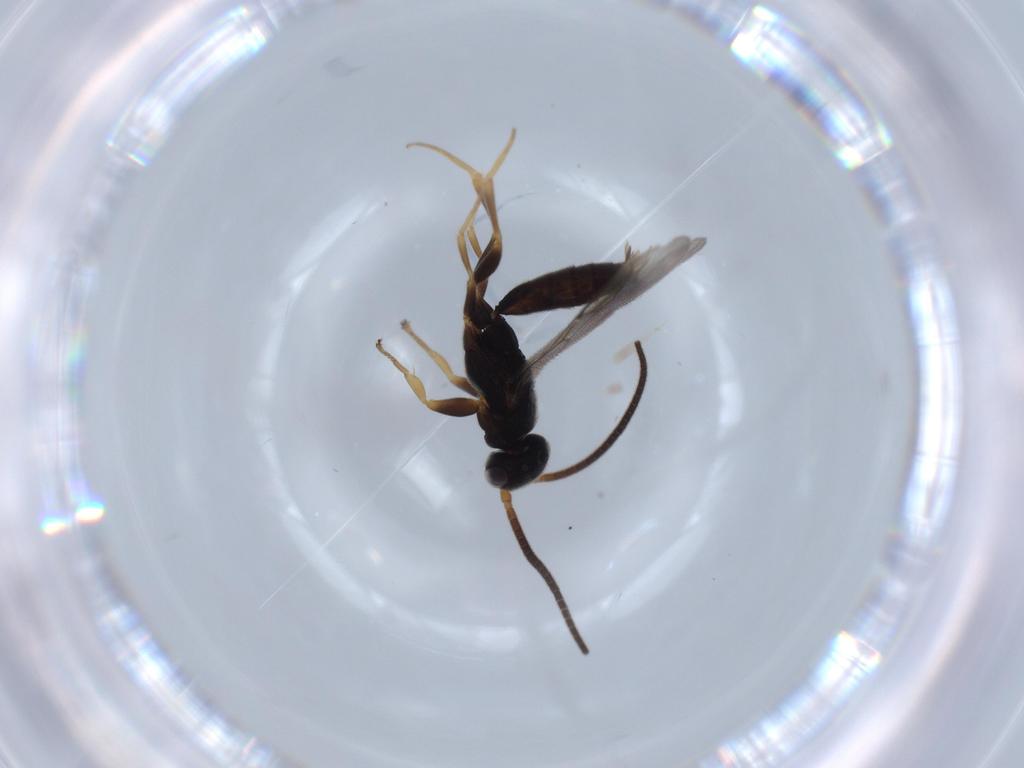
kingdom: Animalia
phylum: Arthropoda
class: Insecta
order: Hymenoptera
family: Sclerogibbidae
